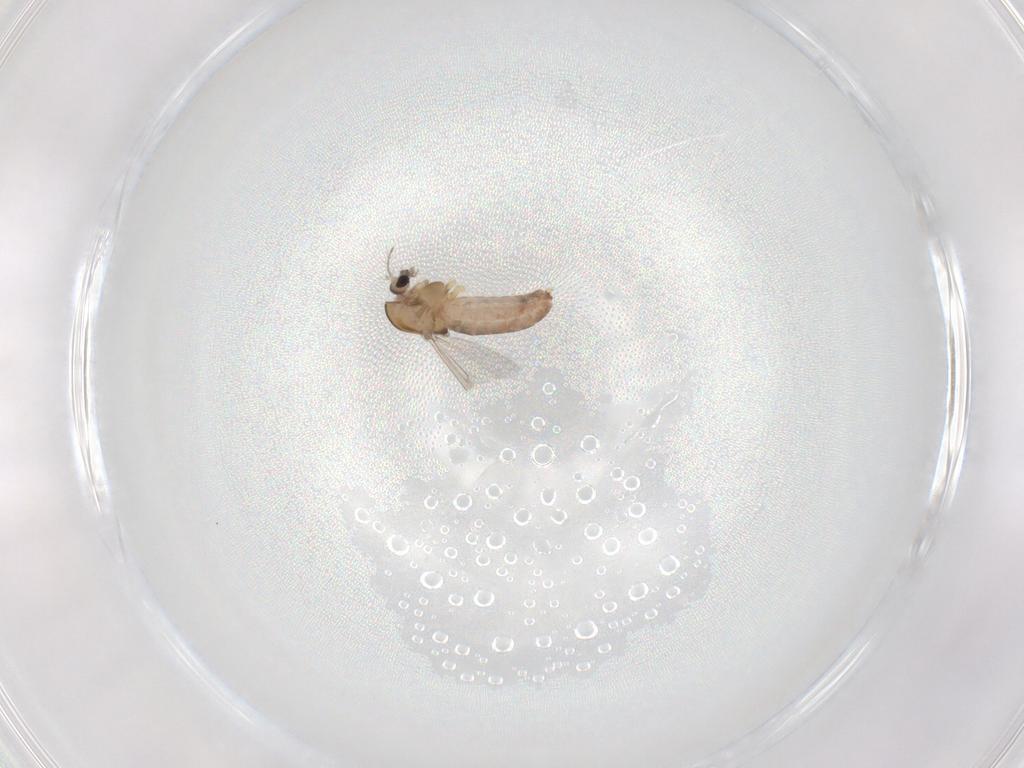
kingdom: Animalia
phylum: Arthropoda
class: Insecta
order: Diptera
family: Chironomidae
